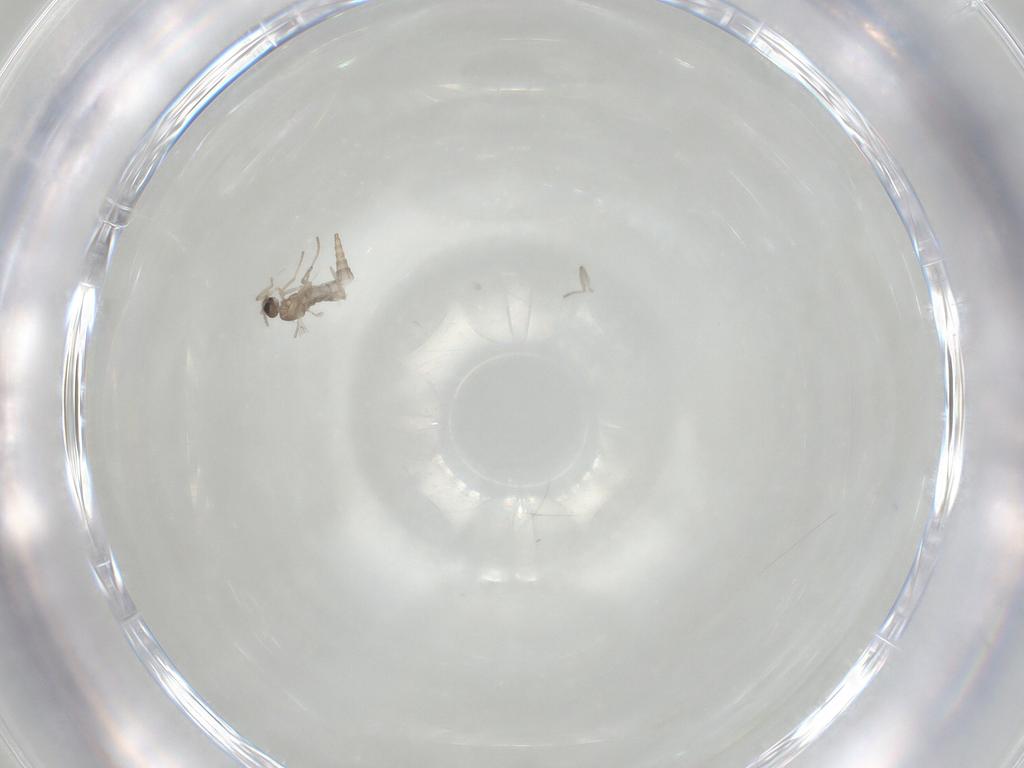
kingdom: Animalia
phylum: Arthropoda
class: Insecta
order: Diptera
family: Cecidomyiidae
